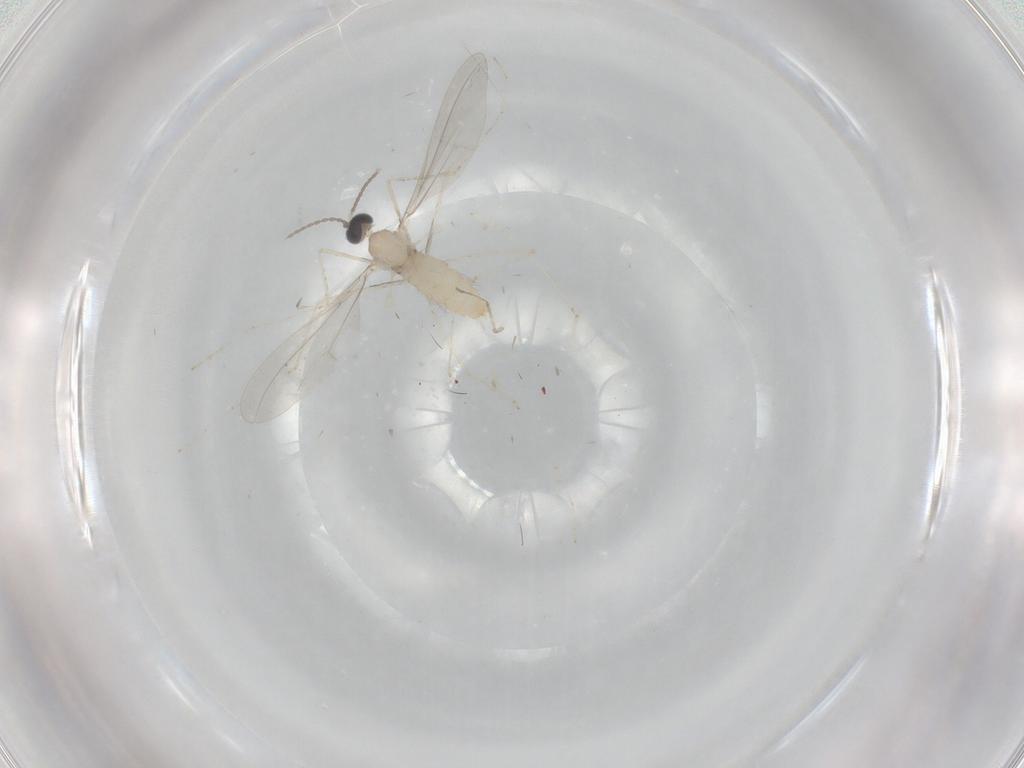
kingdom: Animalia
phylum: Arthropoda
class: Insecta
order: Diptera
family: Cecidomyiidae
